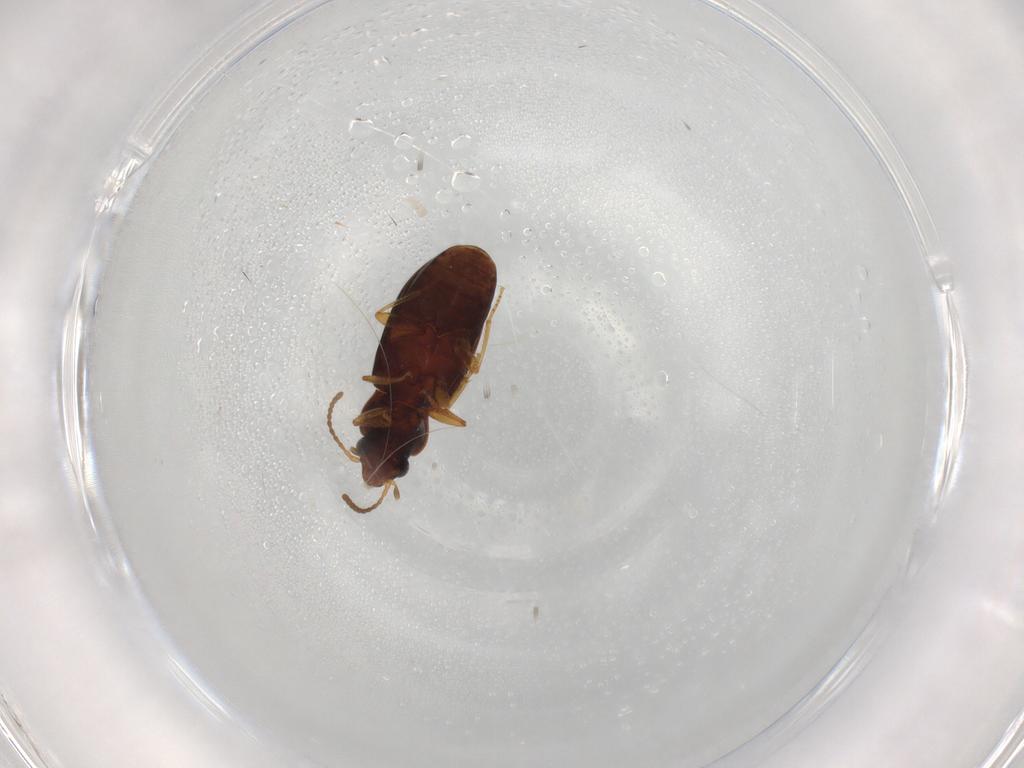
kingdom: Animalia
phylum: Arthropoda
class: Insecta
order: Coleoptera
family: Carabidae
